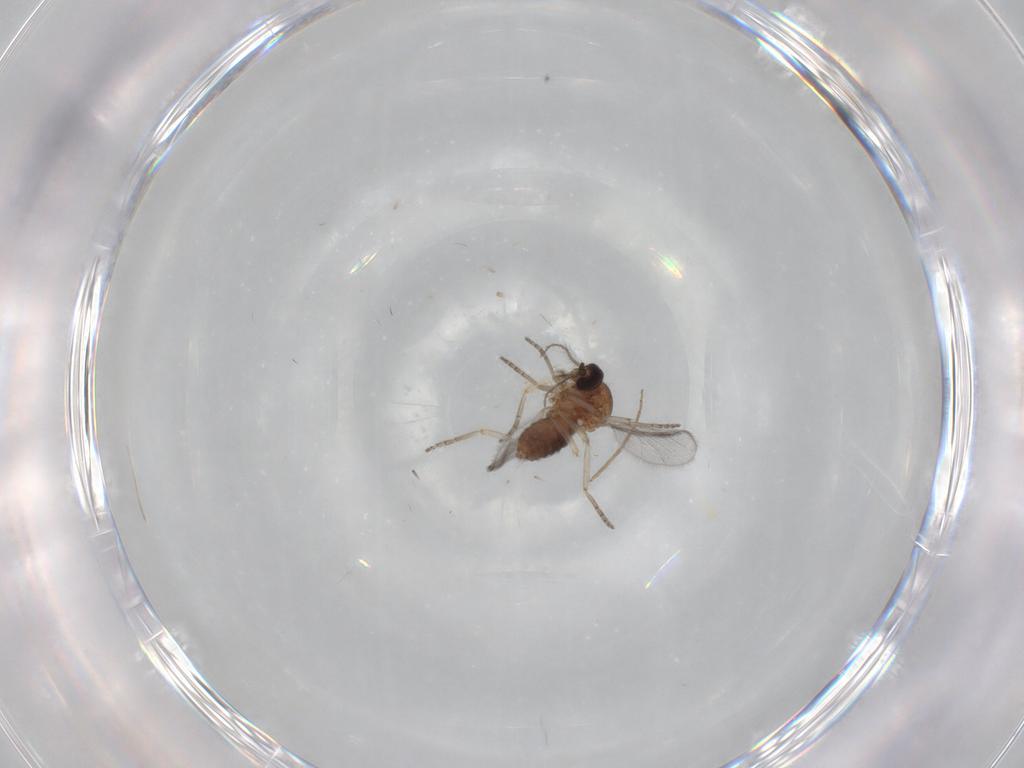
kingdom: Animalia
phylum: Arthropoda
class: Insecta
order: Diptera
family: Ceratopogonidae
